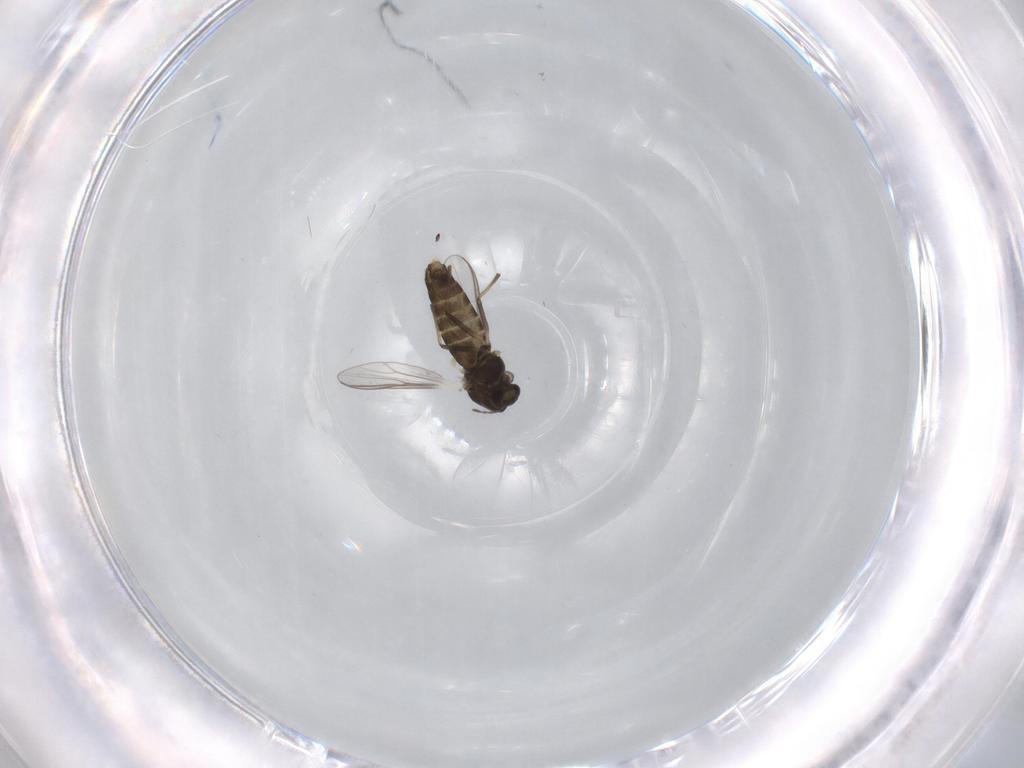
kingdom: Animalia
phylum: Arthropoda
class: Insecta
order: Diptera
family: Chironomidae
